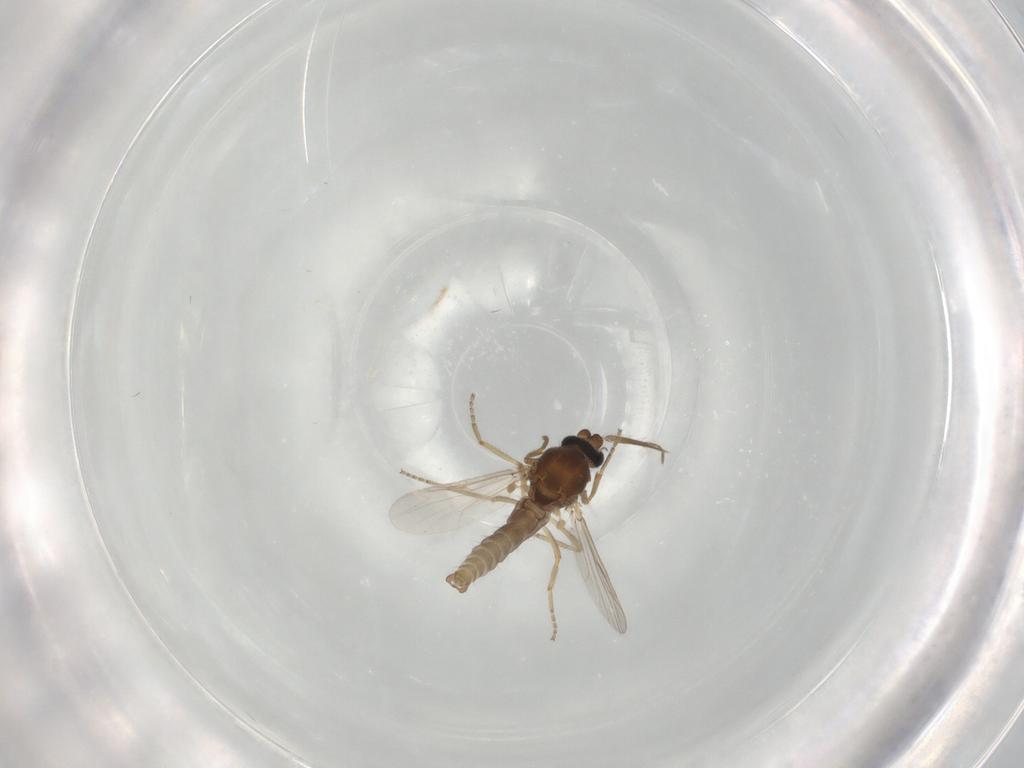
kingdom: Animalia
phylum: Arthropoda
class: Insecta
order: Diptera
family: Ceratopogonidae
